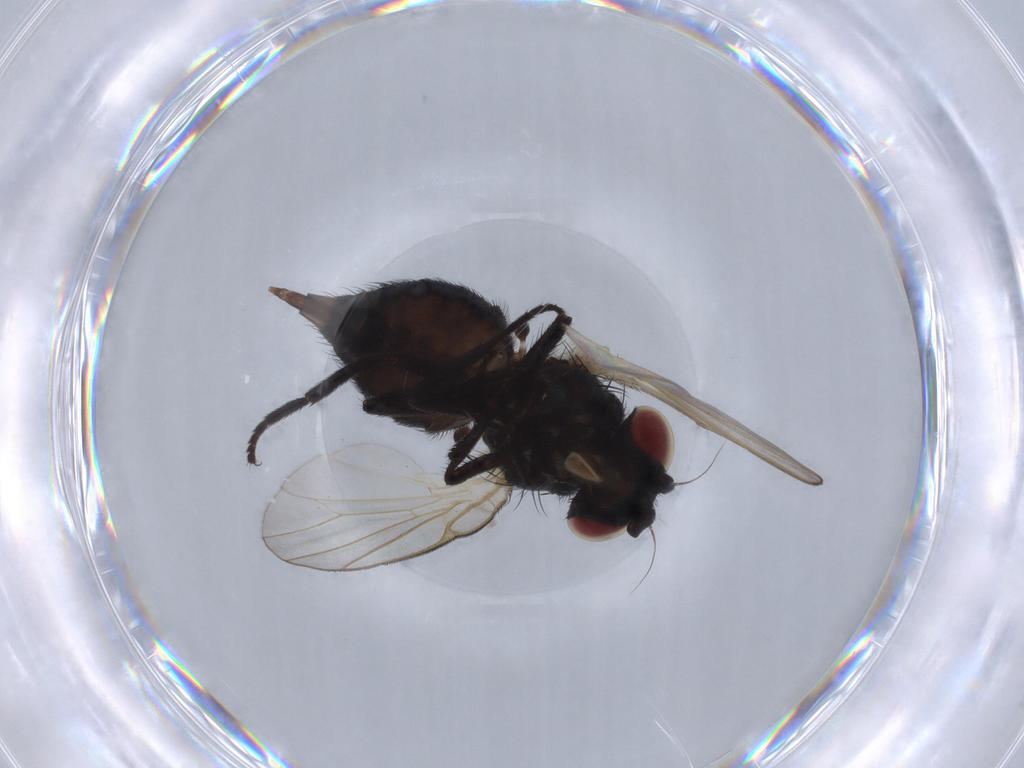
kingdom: Animalia
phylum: Arthropoda
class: Insecta
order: Diptera
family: Lonchaeidae
